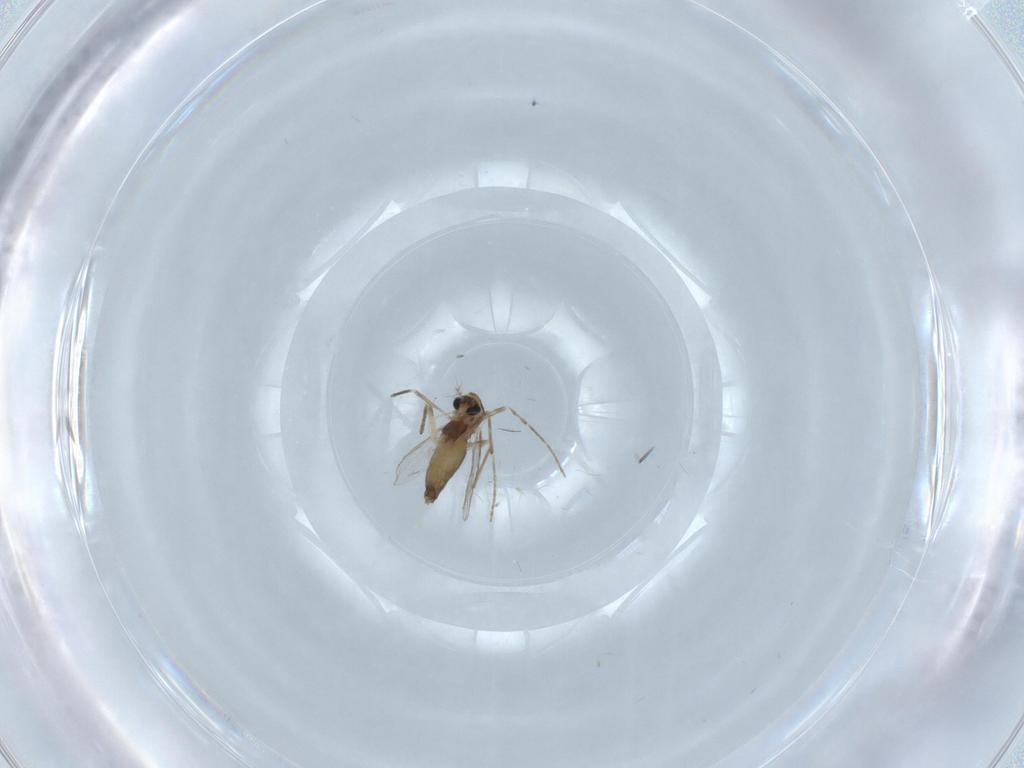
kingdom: Animalia
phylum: Arthropoda
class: Insecta
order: Diptera
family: Chironomidae
